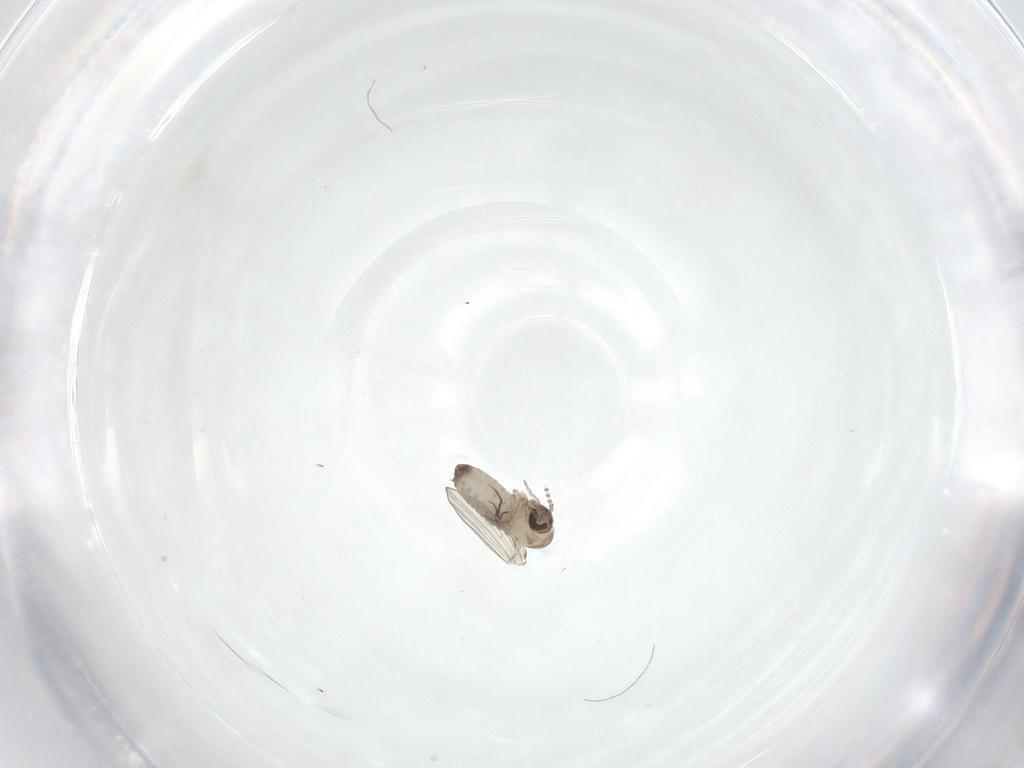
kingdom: Animalia
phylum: Arthropoda
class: Insecta
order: Diptera
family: Psychodidae
